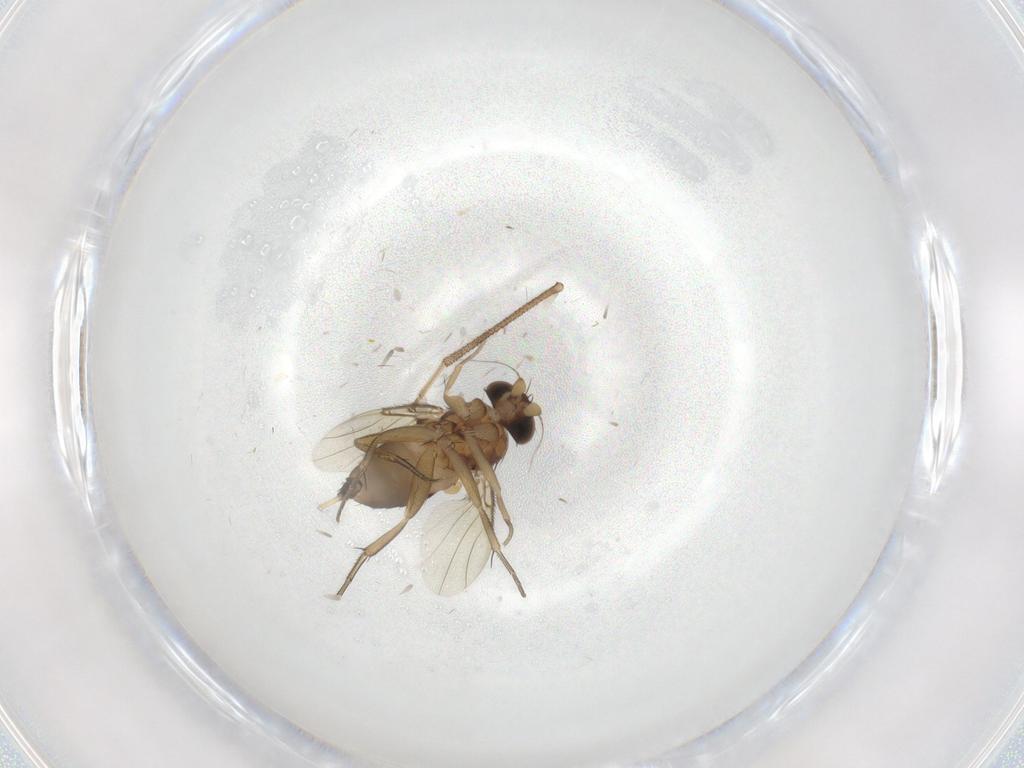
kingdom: Animalia
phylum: Arthropoda
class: Insecta
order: Diptera
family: Phoridae
